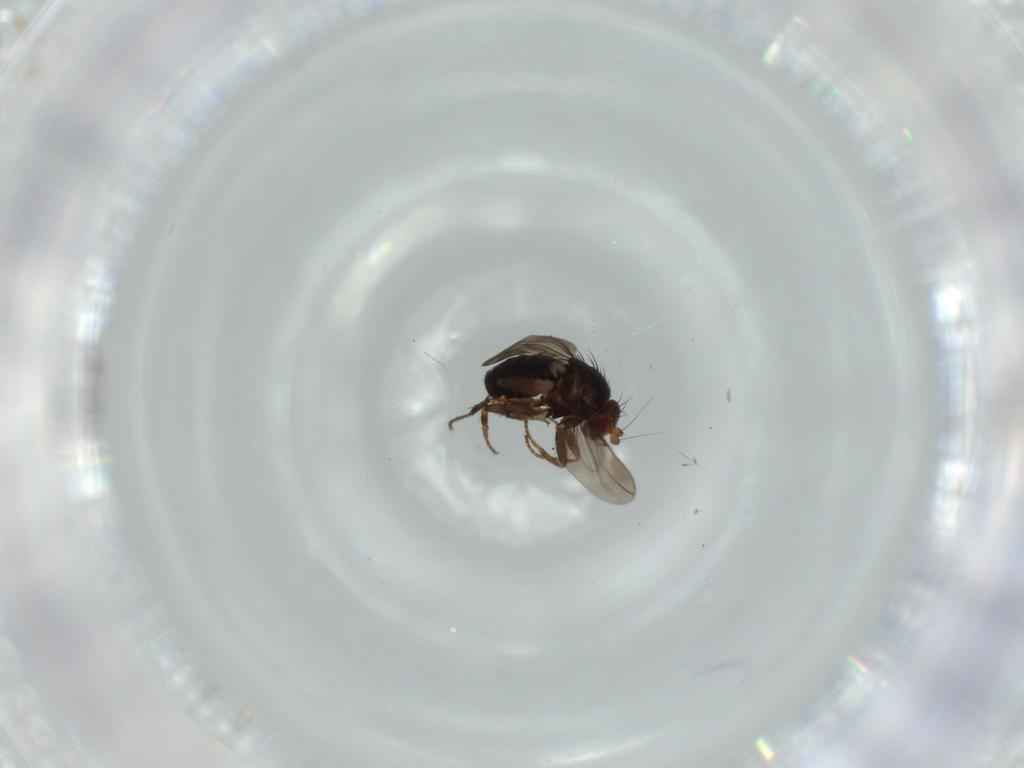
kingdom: Animalia
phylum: Arthropoda
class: Insecta
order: Diptera
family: Sphaeroceridae
